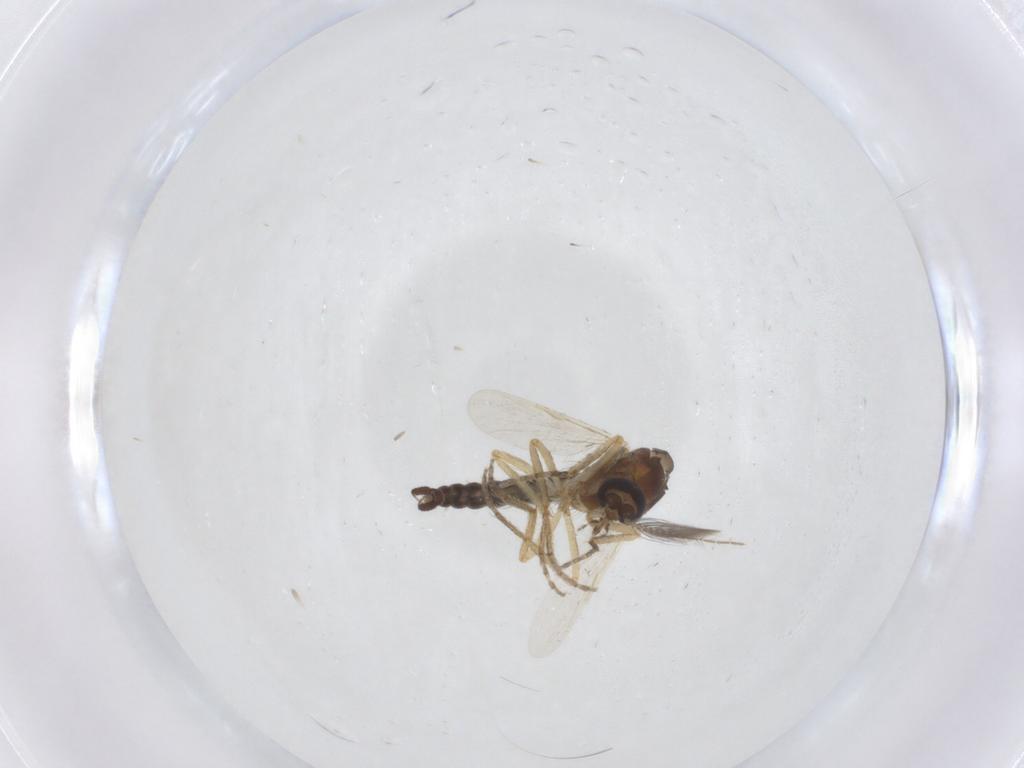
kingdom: Animalia
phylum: Arthropoda
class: Insecta
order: Diptera
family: Ceratopogonidae
